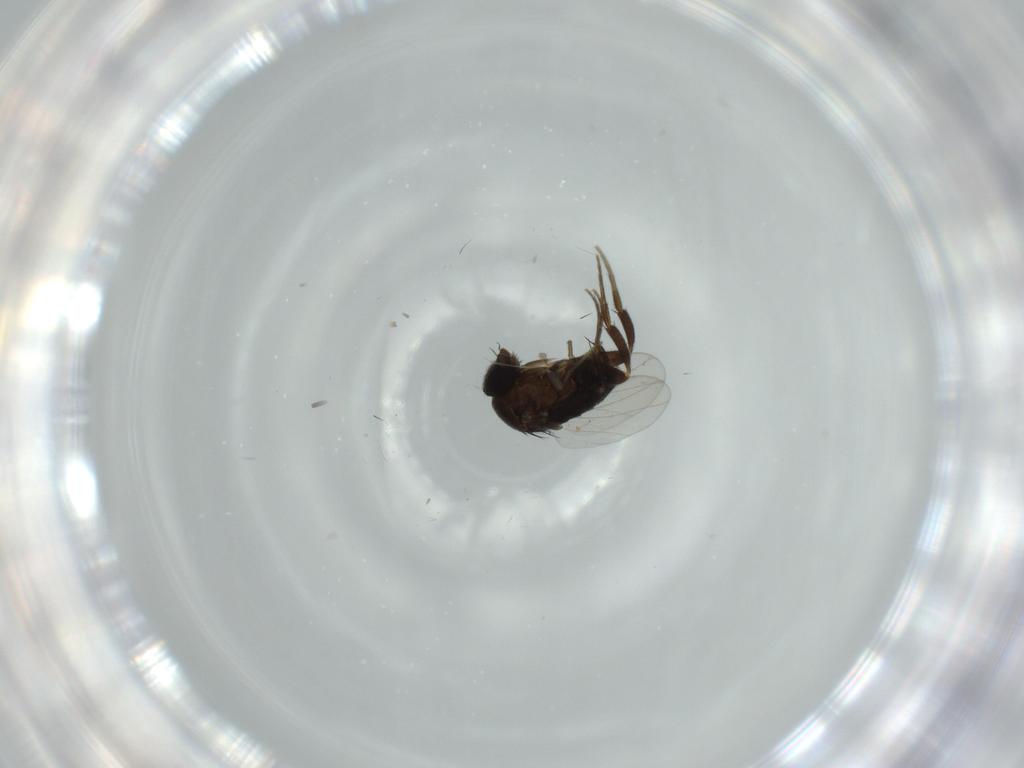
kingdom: Animalia
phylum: Arthropoda
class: Insecta
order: Diptera
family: Phoridae
